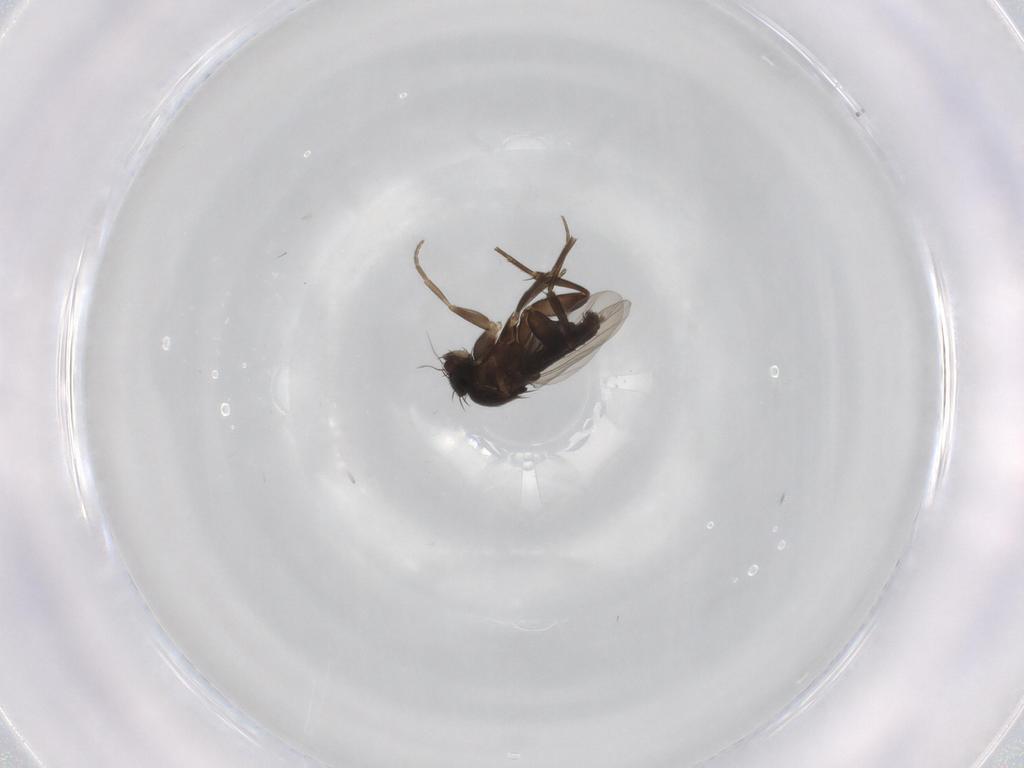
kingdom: Animalia
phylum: Arthropoda
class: Insecta
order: Diptera
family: Phoridae
